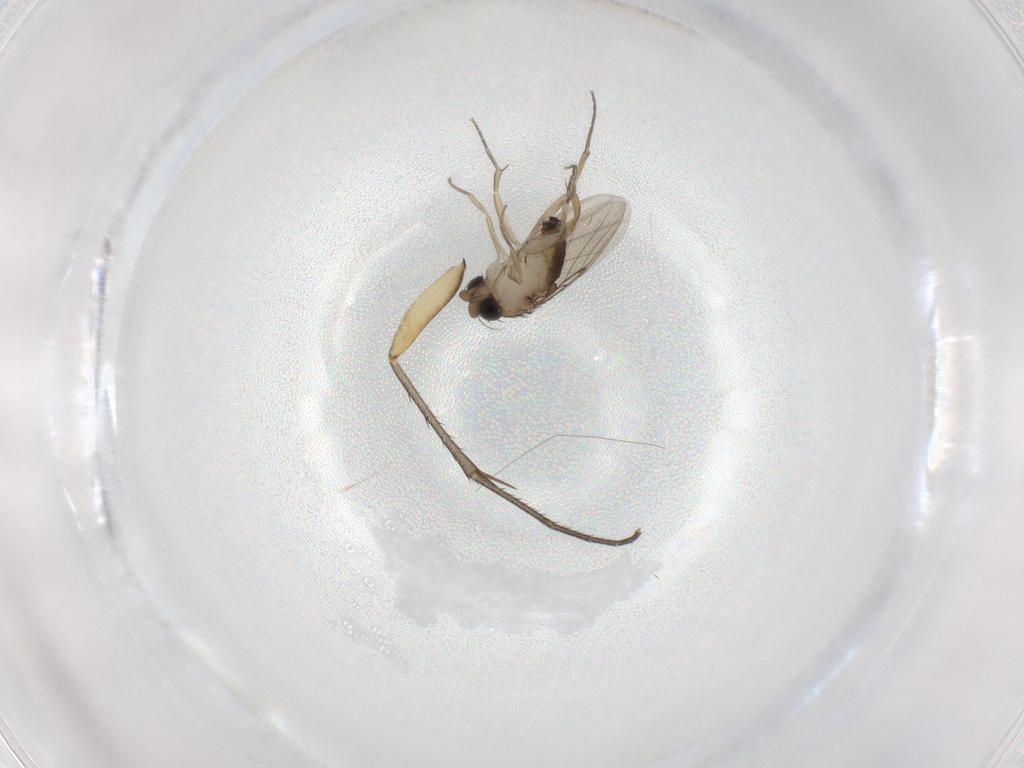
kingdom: Animalia
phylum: Arthropoda
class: Insecta
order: Diptera
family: Mycetophilidae
